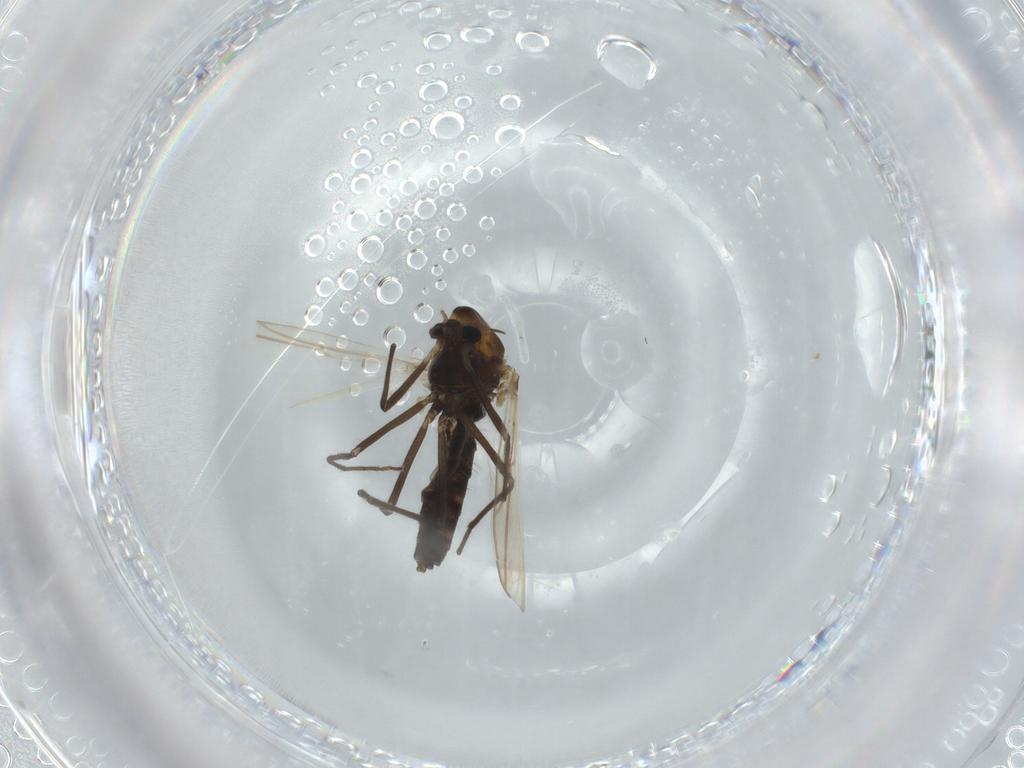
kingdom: Animalia
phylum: Arthropoda
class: Insecta
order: Diptera
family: Chironomidae
